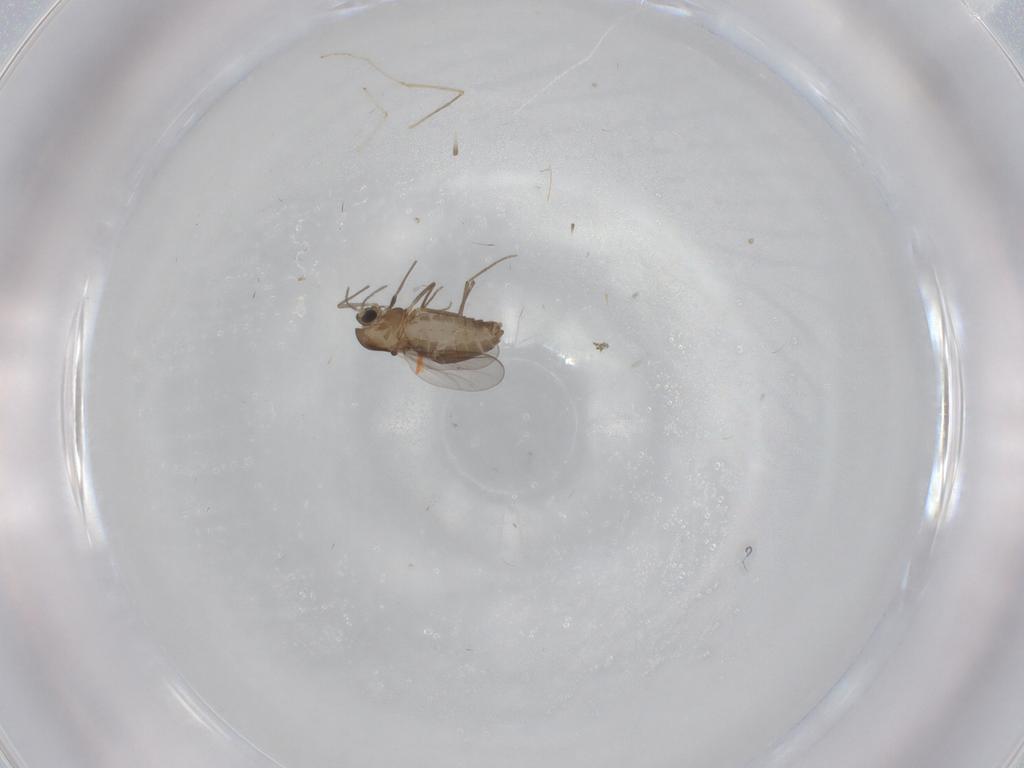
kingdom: Animalia
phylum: Arthropoda
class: Insecta
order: Diptera
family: Chironomidae
